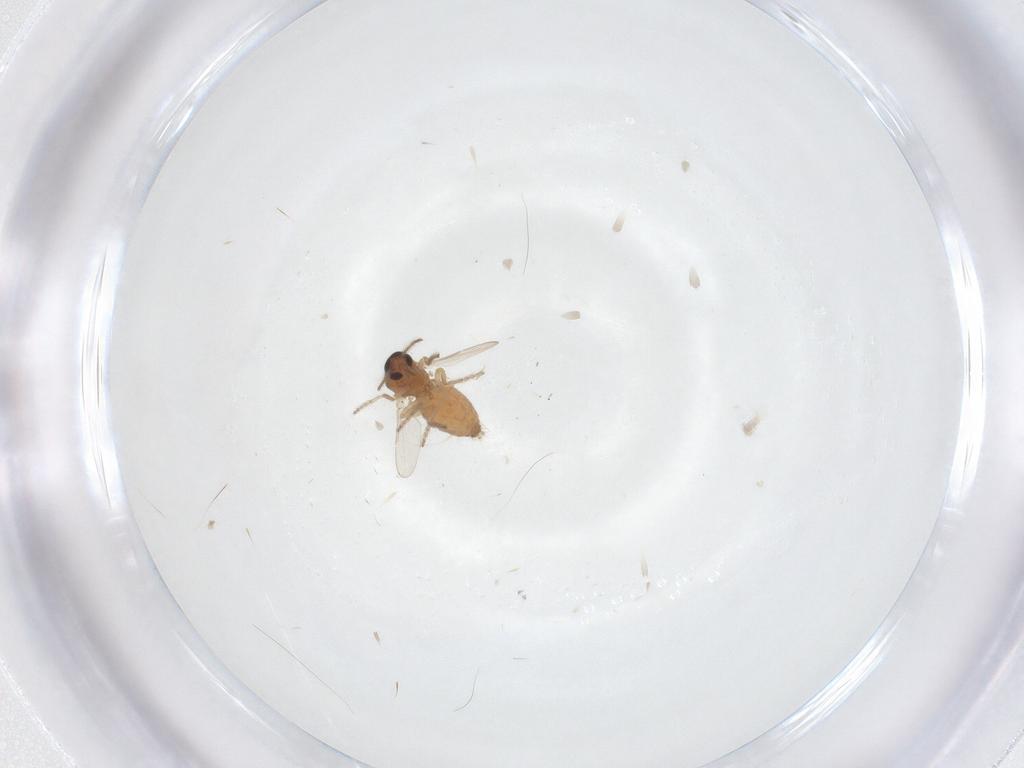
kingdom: Animalia
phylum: Arthropoda
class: Insecta
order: Diptera
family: Ceratopogonidae
